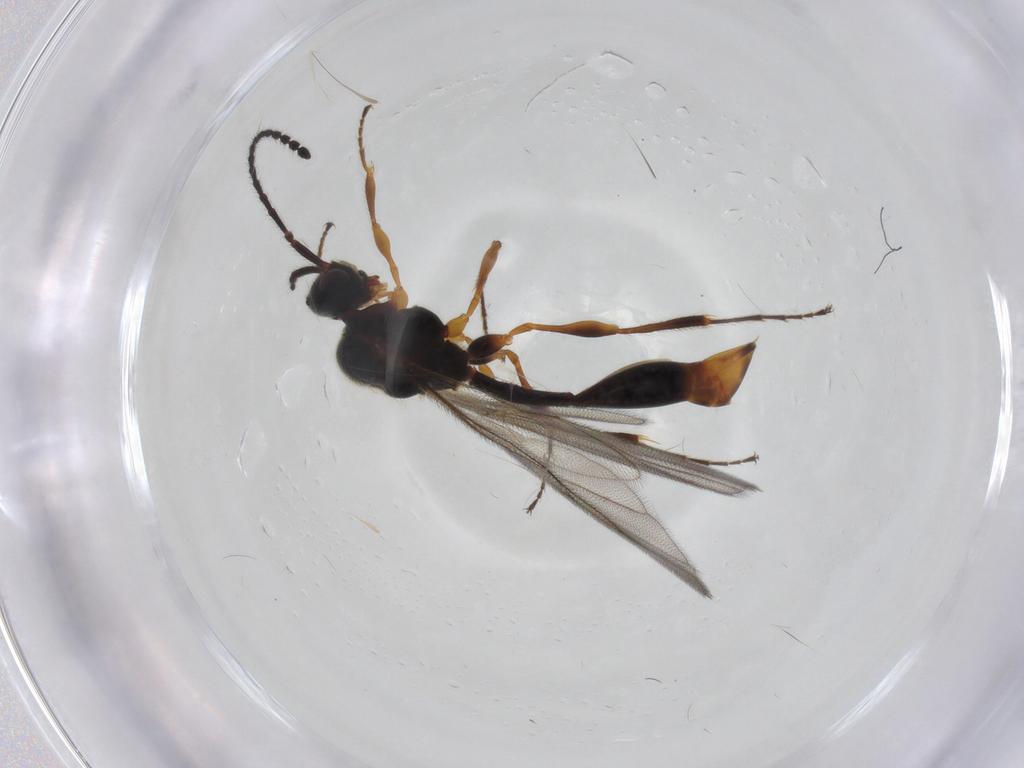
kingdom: Animalia
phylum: Arthropoda
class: Insecta
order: Hymenoptera
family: Diapriidae
